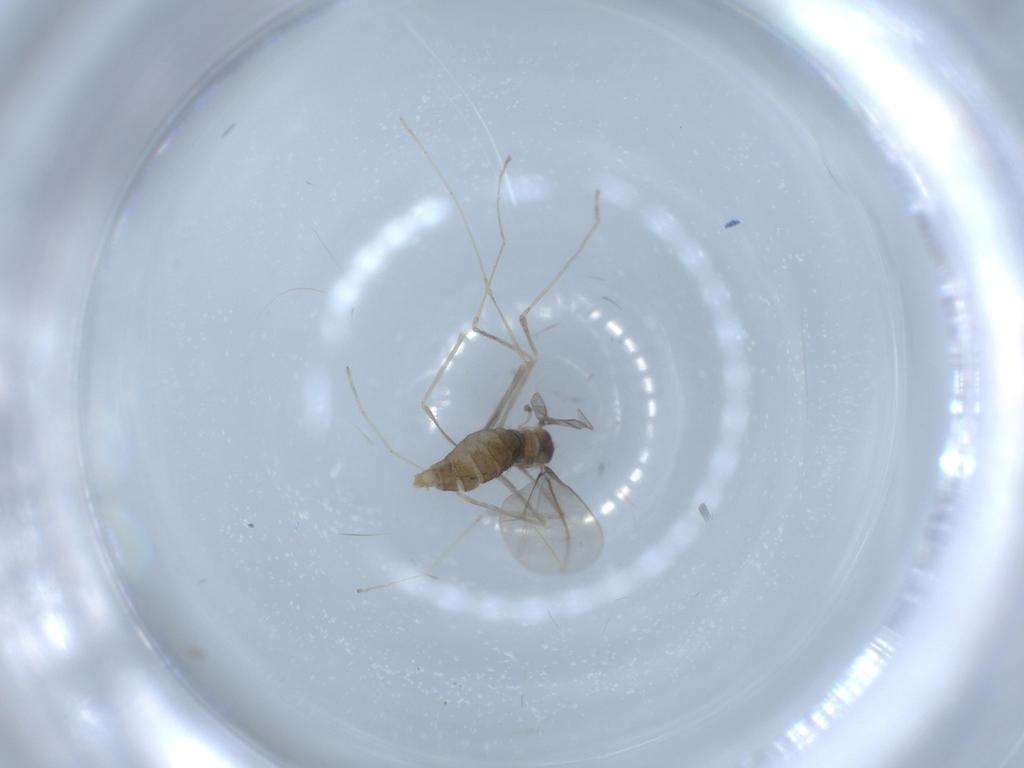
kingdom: Animalia
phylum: Arthropoda
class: Insecta
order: Diptera
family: Cecidomyiidae
